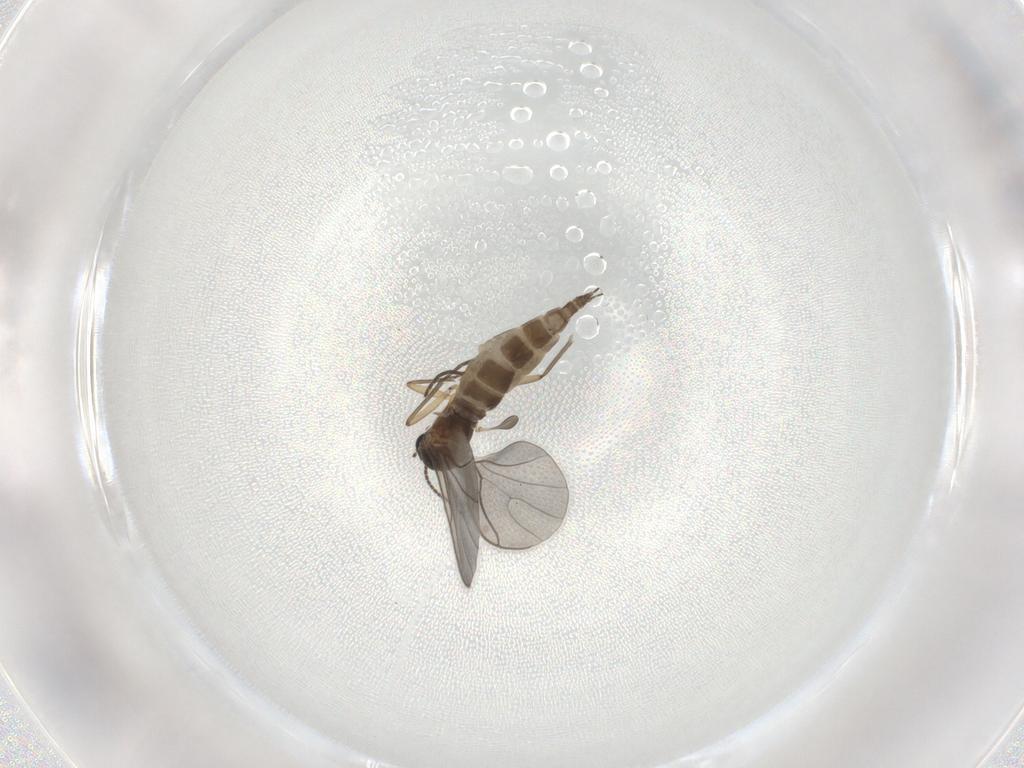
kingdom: Animalia
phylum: Arthropoda
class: Insecta
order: Diptera
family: Sciaridae
